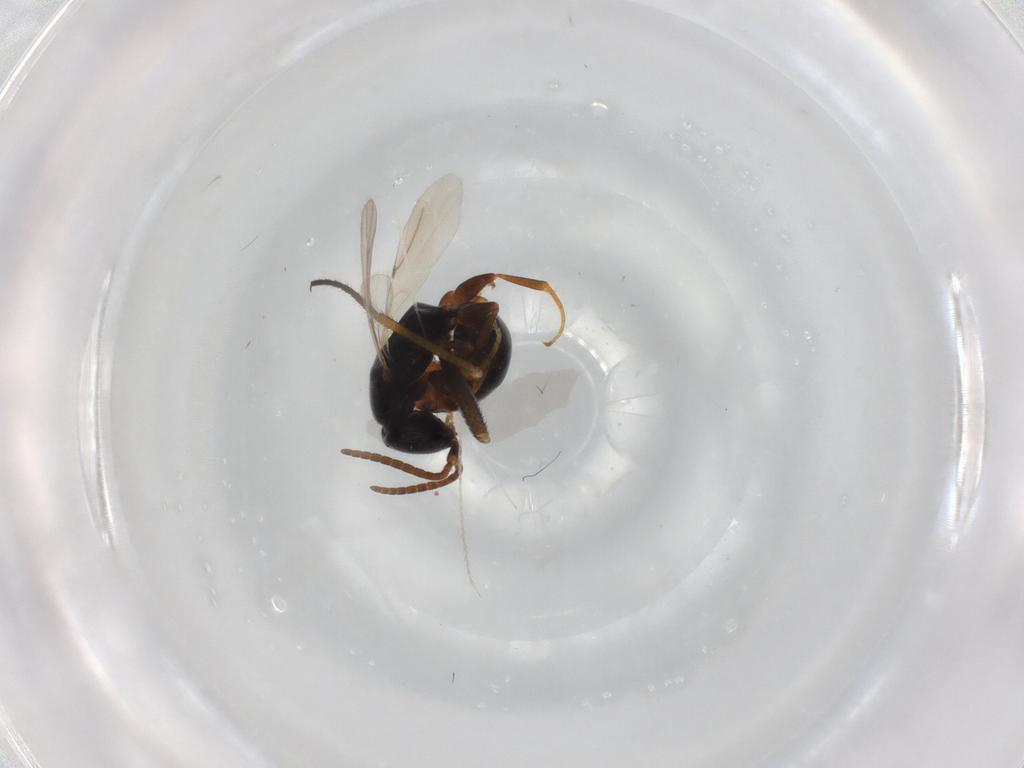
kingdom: Animalia
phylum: Arthropoda
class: Insecta
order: Hymenoptera
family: Bethylidae
